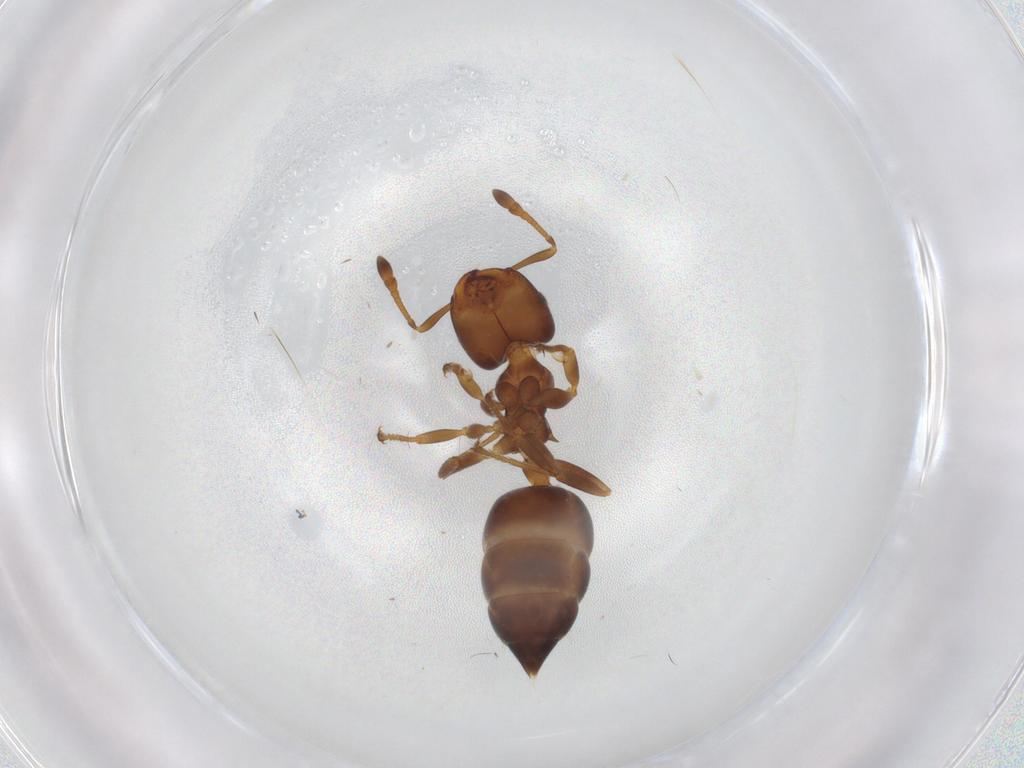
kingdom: Animalia
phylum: Arthropoda
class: Insecta
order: Hymenoptera
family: Formicidae
